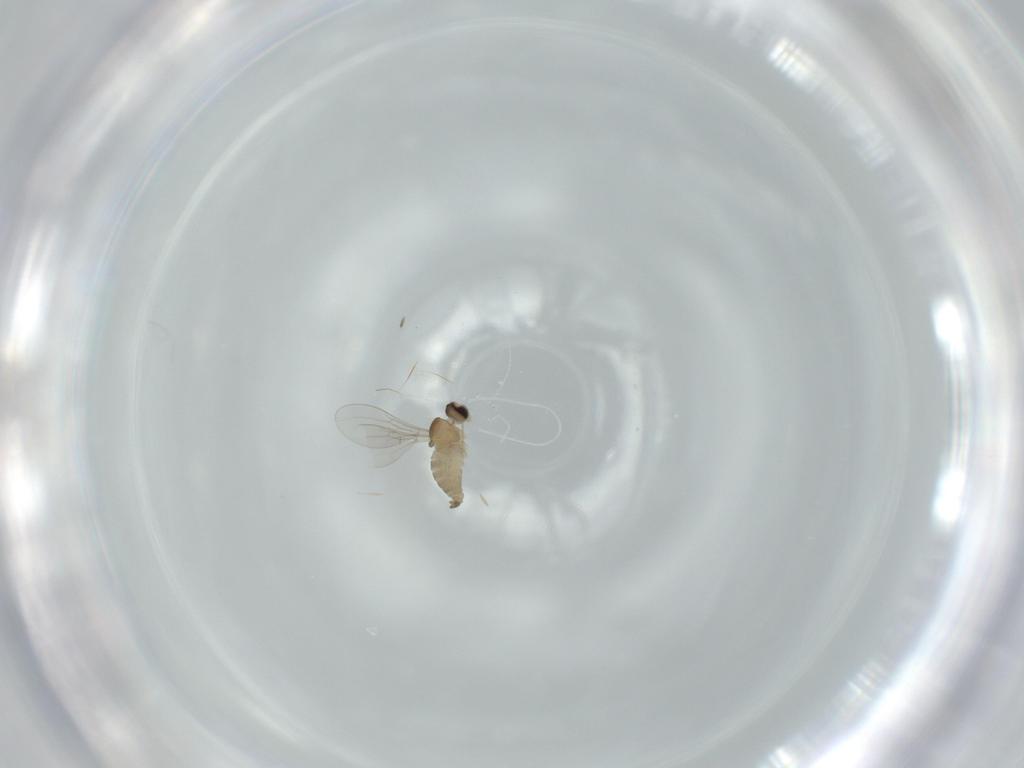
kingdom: Animalia
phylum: Arthropoda
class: Insecta
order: Diptera
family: Cecidomyiidae
